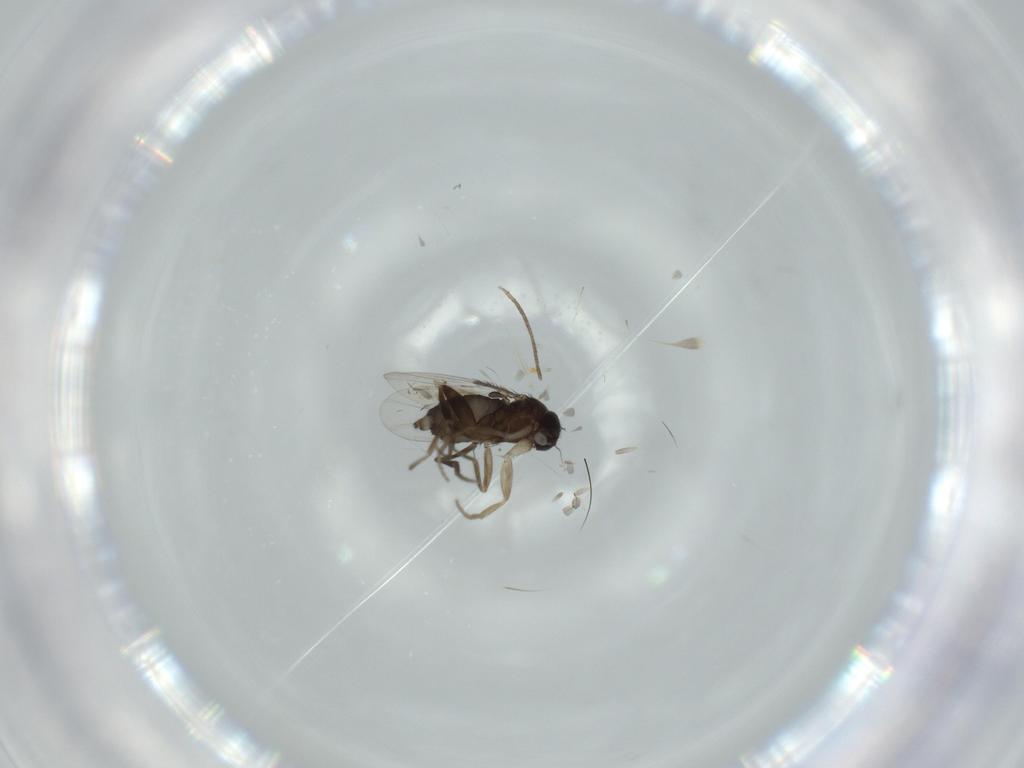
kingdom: Animalia
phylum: Arthropoda
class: Insecta
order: Diptera
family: Phoridae
